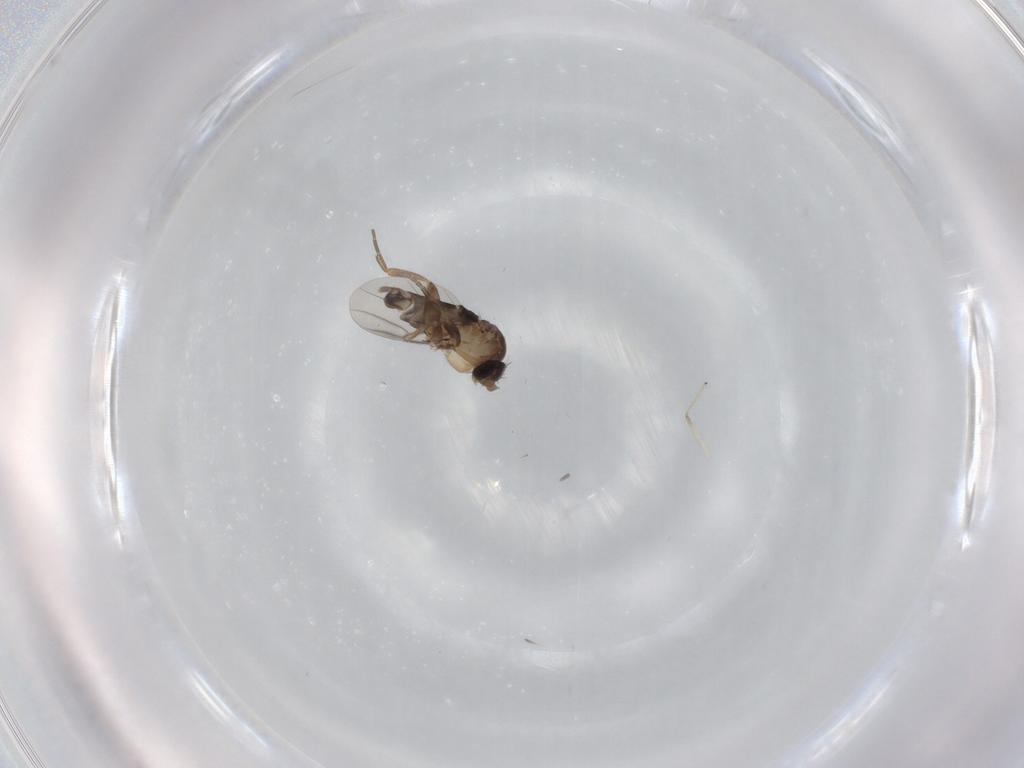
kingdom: Animalia
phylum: Arthropoda
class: Insecta
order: Diptera
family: Phoridae
